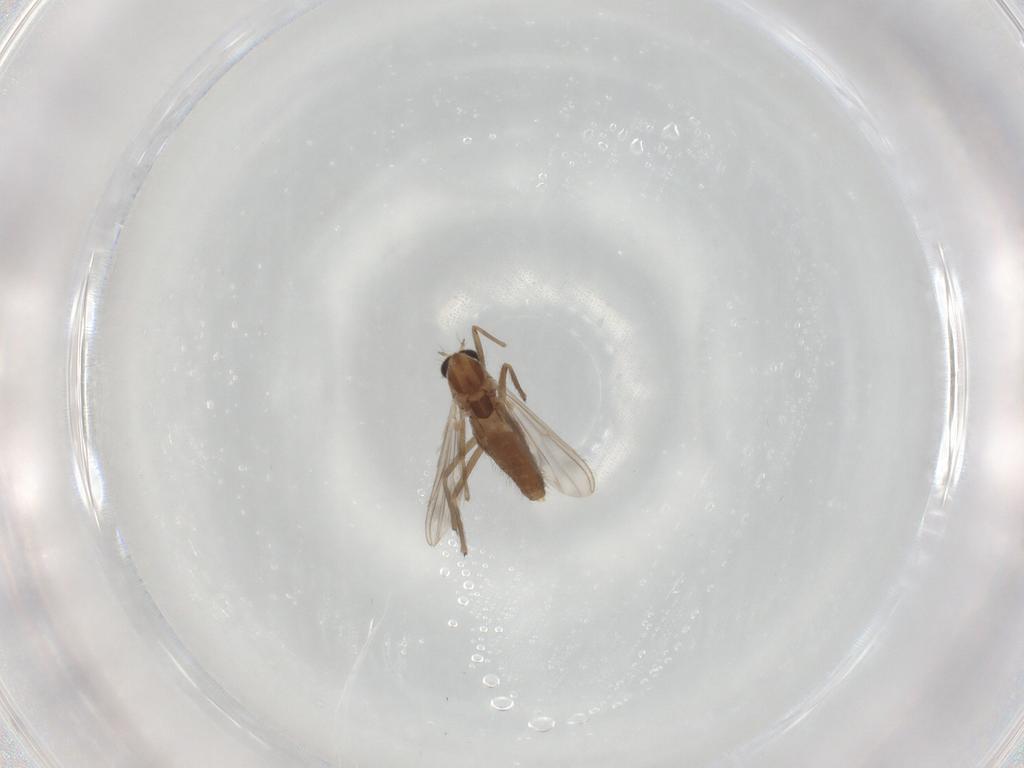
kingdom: Animalia
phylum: Arthropoda
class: Insecta
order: Diptera
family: Chironomidae
